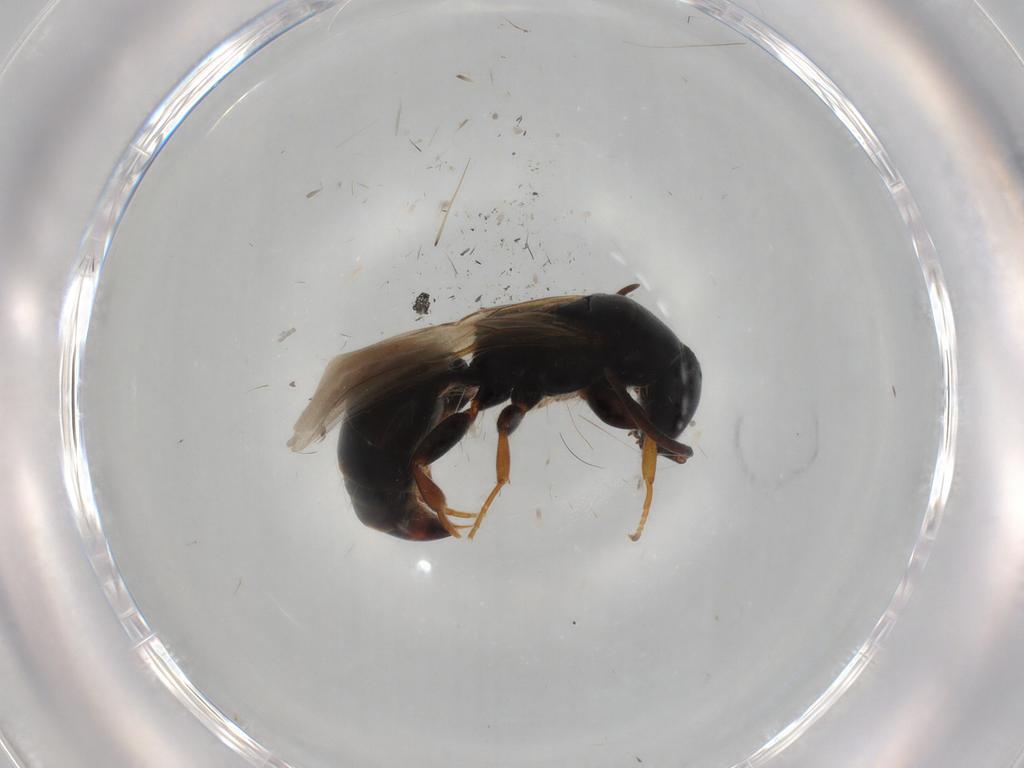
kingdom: Animalia
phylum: Arthropoda
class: Insecta
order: Hymenoptera
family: Bethylidae
